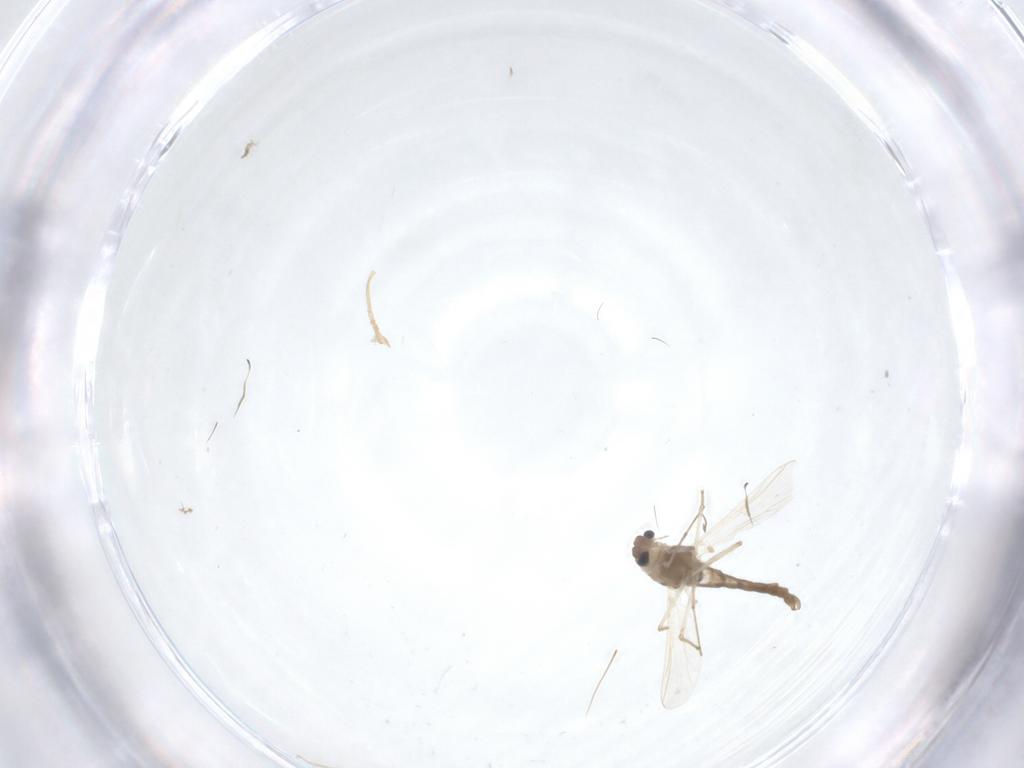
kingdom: Animalia
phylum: Arthropoda
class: Insecta
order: Diptera
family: Cecidomyiidae
